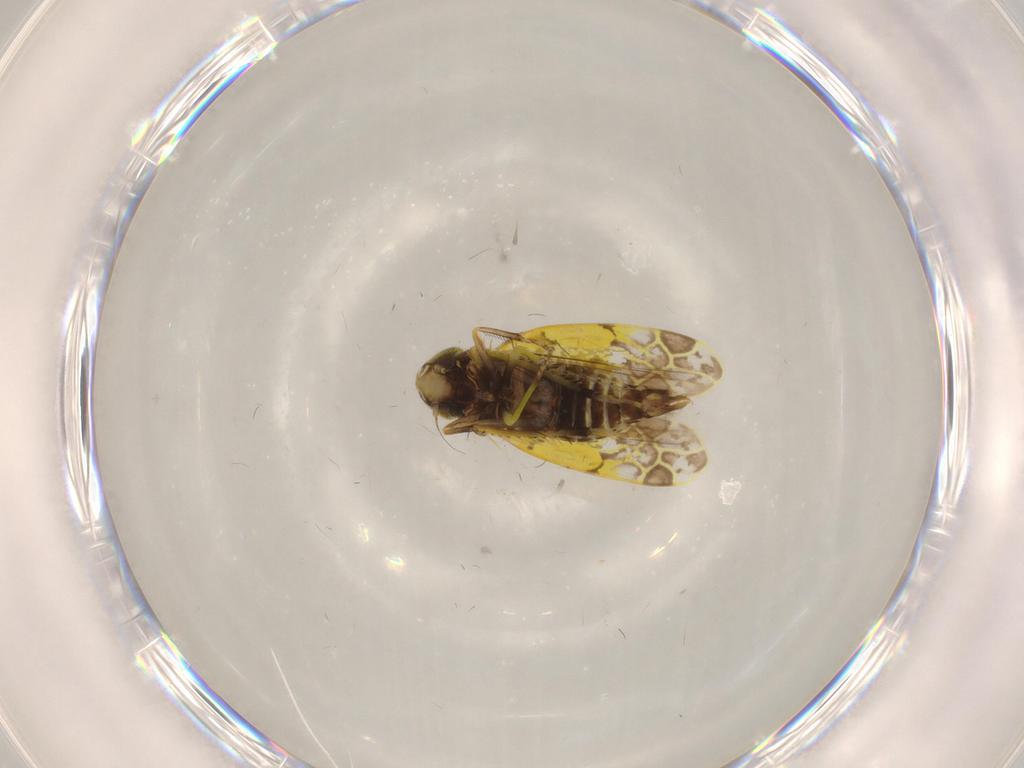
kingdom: Animalia
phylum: Arthropoda
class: Insecta
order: Hemiptera
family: Cicadellidae
